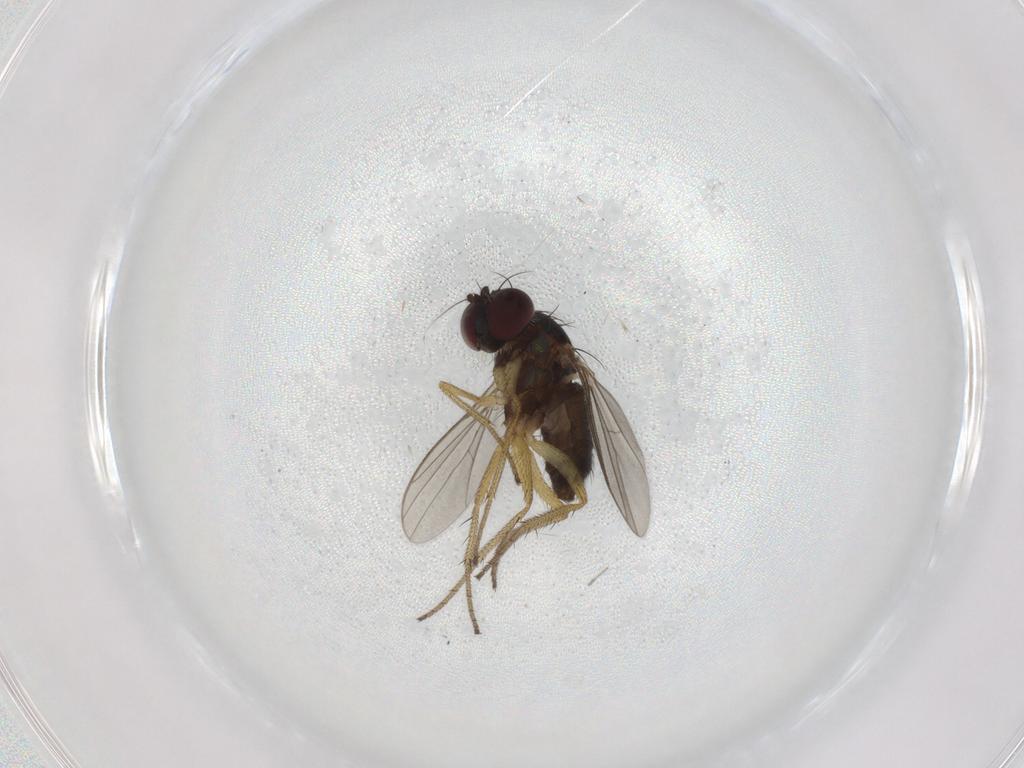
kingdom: Animalia
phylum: Arthropoda
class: Insecta
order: Diptera
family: Dolichopodidae
